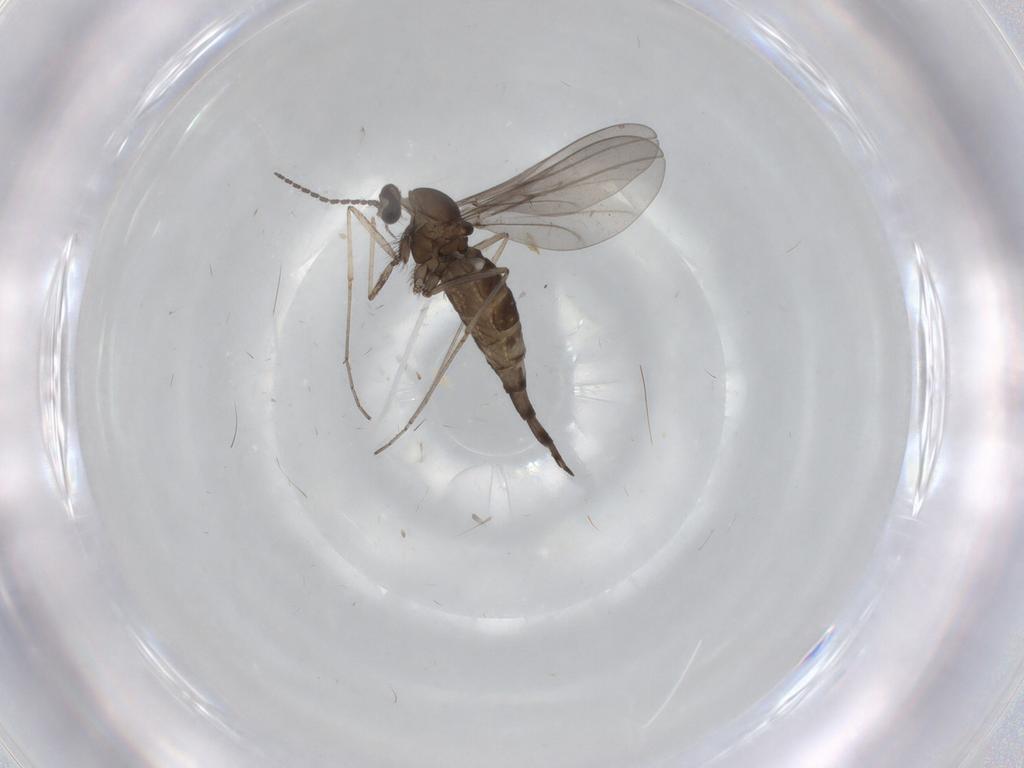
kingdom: Animalia
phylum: Arthropoda
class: Insecta
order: Diptera
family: Cecidomyiidae
